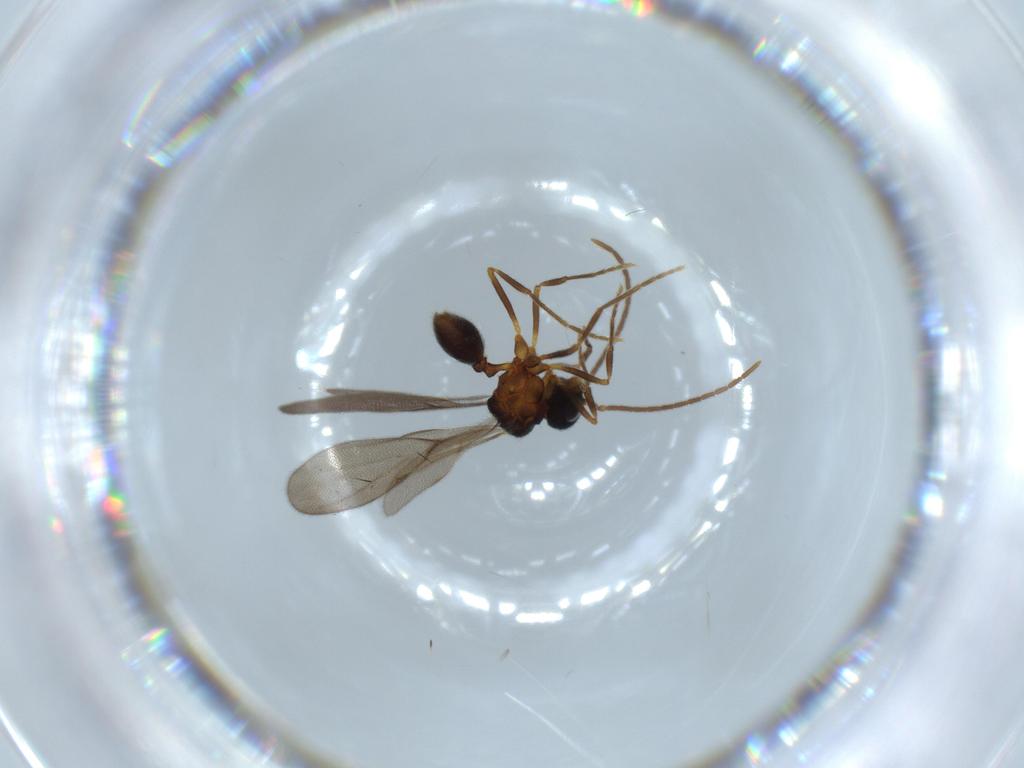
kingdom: Animalia
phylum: Arthropoda
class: Insecta
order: Hymenoptera
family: Formicidae
